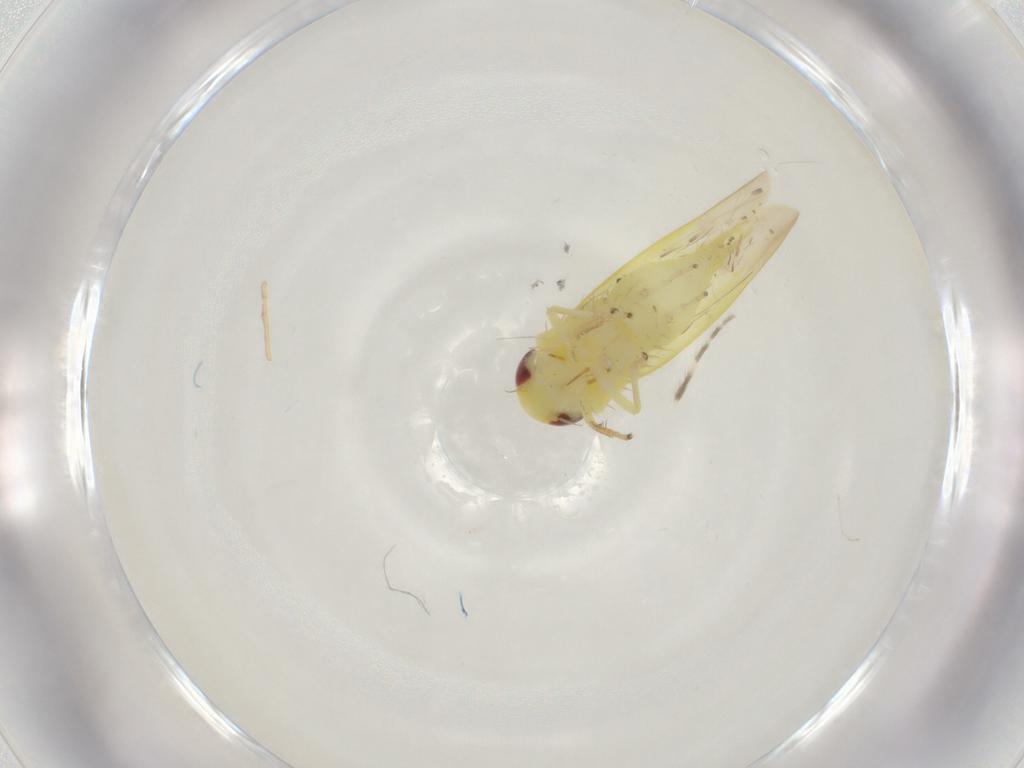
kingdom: Animalia
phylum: Arthropoda
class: Insecta
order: Hemiptera
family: Cicadellidae
